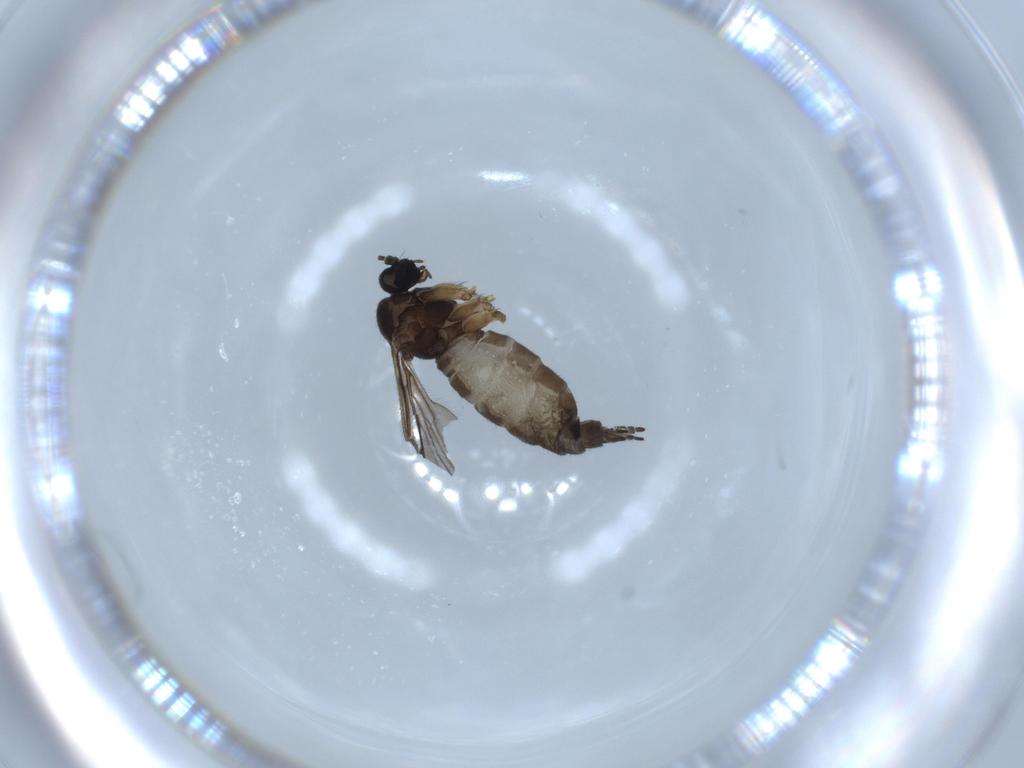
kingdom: Animalia
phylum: Arthropoda
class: Insecta
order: Diptera
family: Sciaridae
